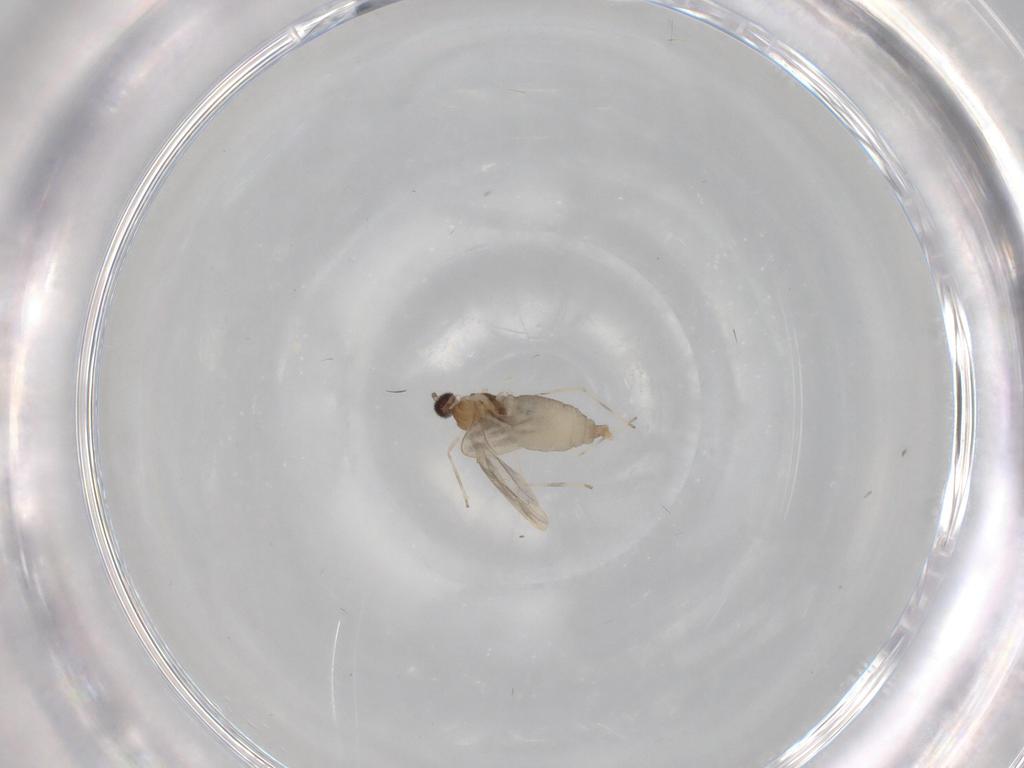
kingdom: Animalia
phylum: Arthropoda
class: Insecta
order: Diptera
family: Cecidomyiidae
